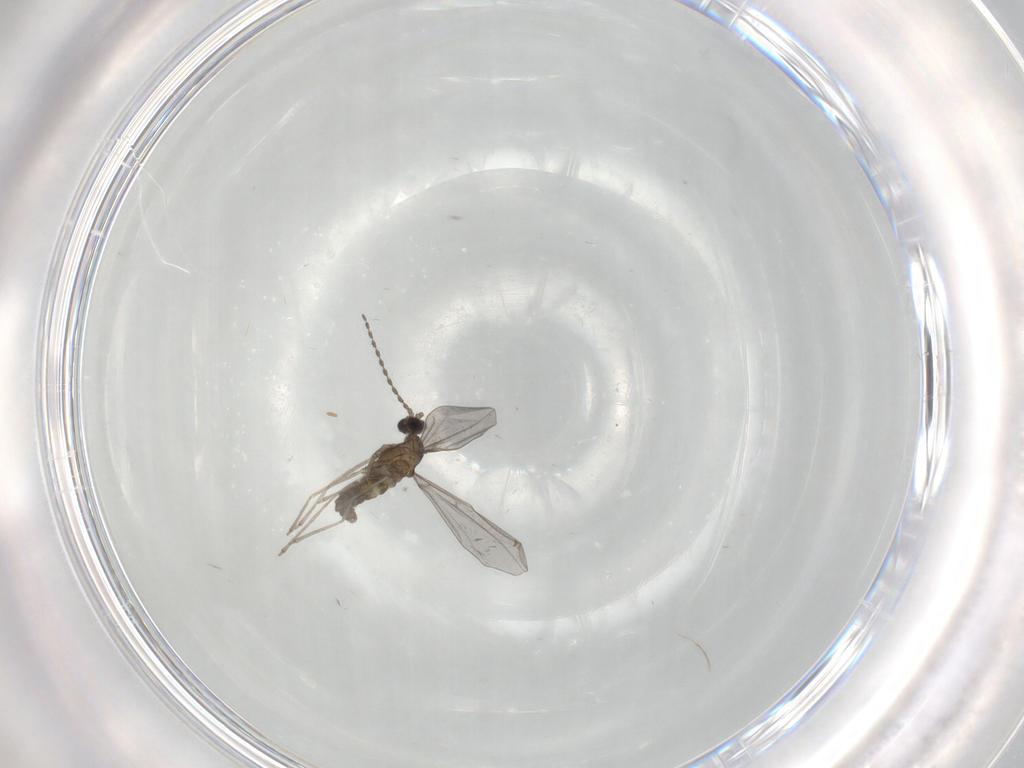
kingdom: Animalia
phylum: Arthropoda
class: Insecta
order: Diptera
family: Cecidomyiidae
